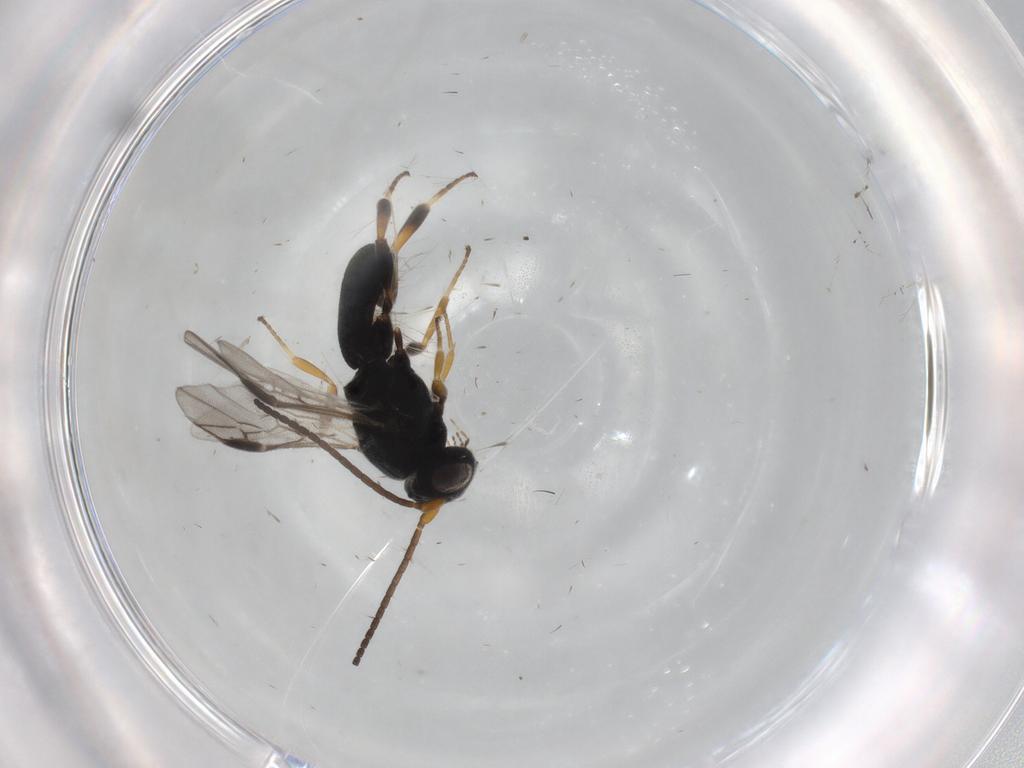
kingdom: Animalia
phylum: Arthropoda
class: Insecta
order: Hymenoptera
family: Braconidae
